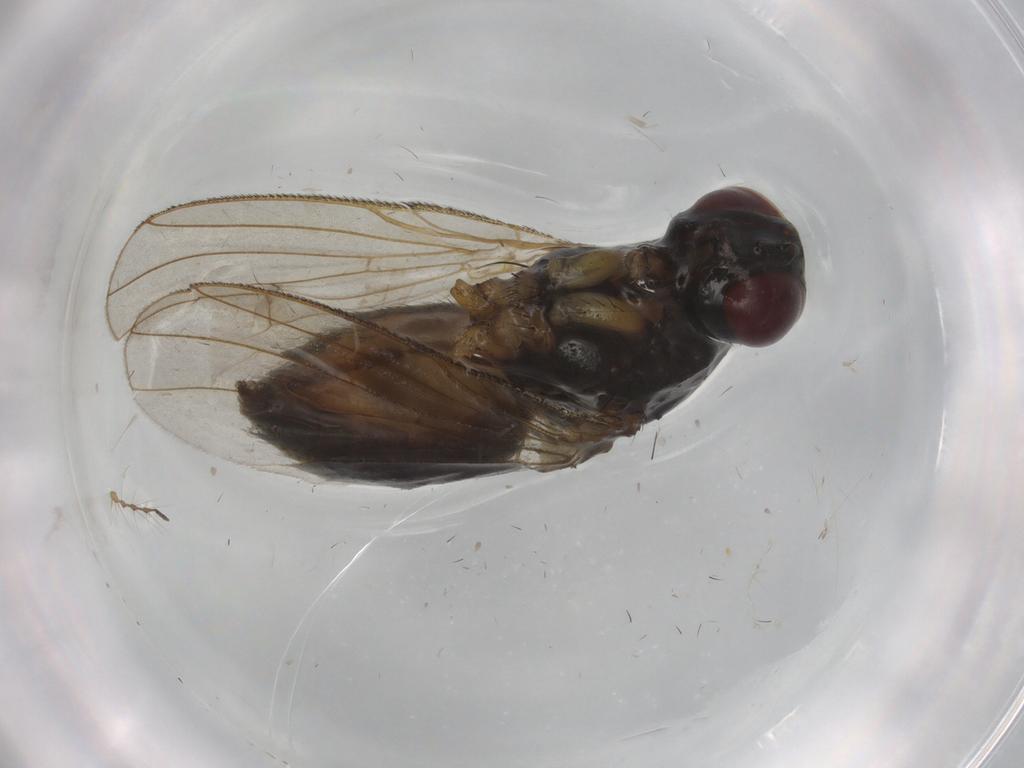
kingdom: Animalia
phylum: Arthropoda
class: Insecta
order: Diptera
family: Muscidae
